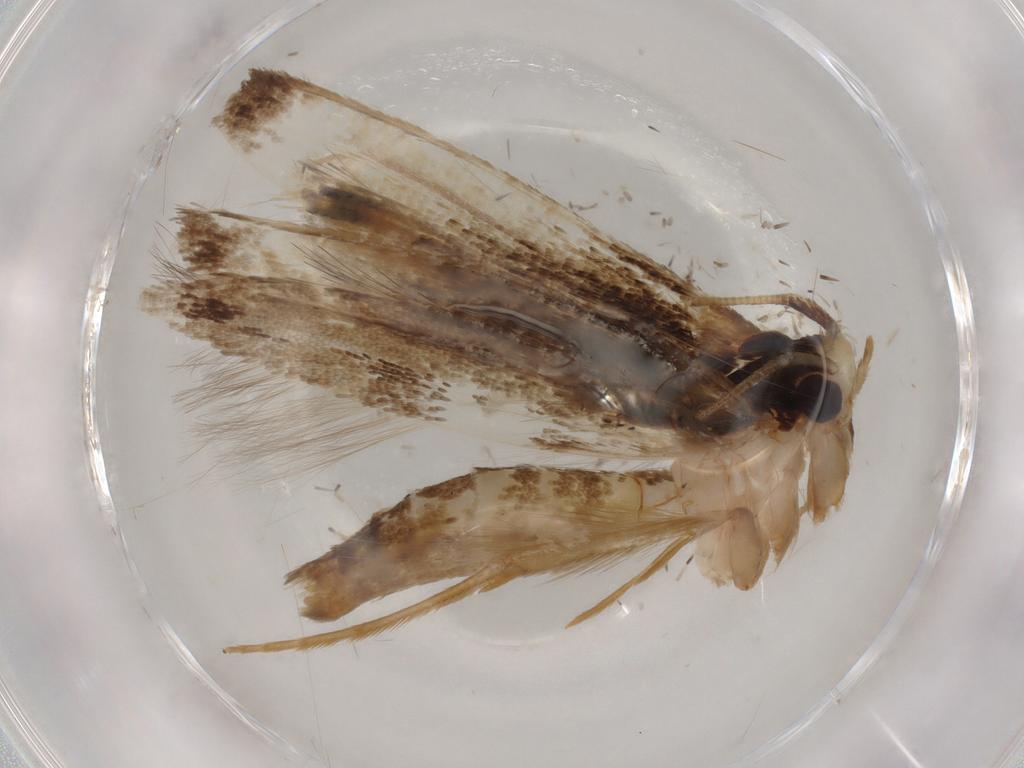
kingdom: Animalia
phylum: Arthropoda
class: Insecta
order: Lepidoptera
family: Tineidae
